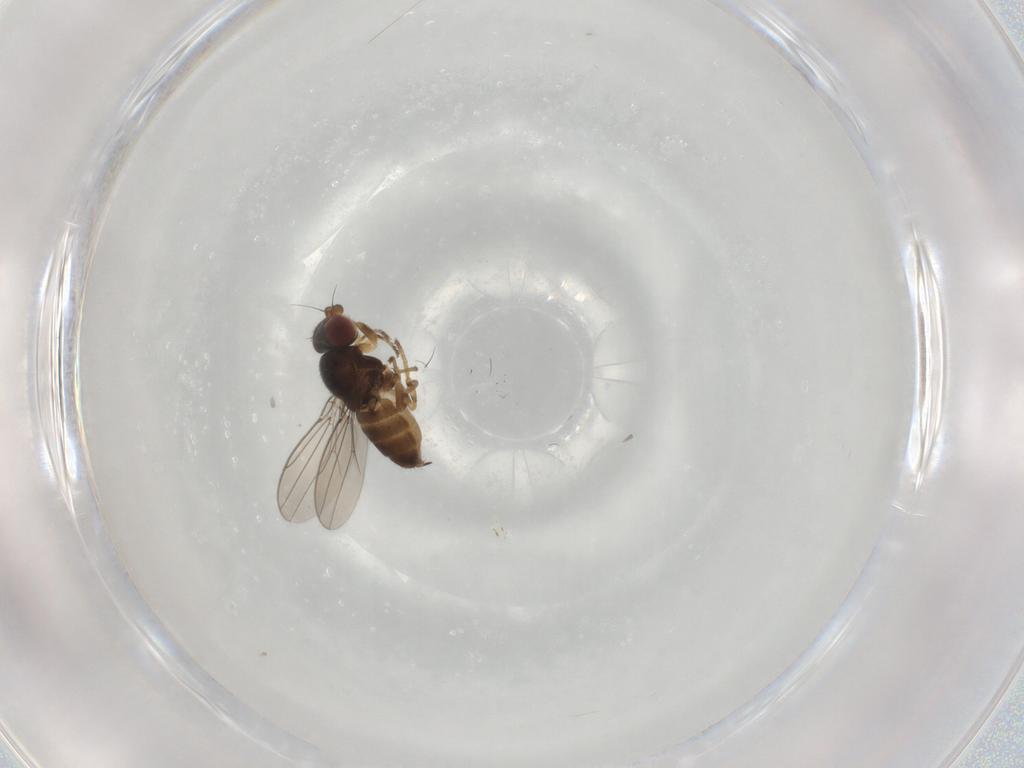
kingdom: Animalia
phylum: Arthropoda
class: Insecta
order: Diptera
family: Chloropidae
